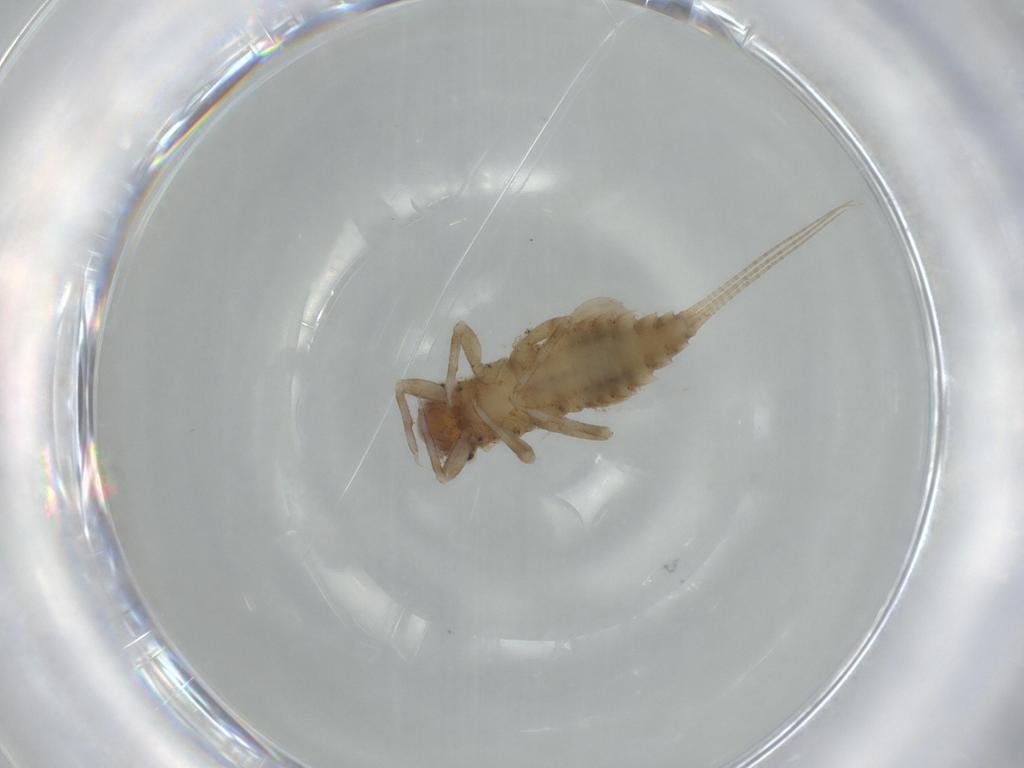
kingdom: Animalia
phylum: Arthropoda
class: Insecta
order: Ephemeroptera
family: Caenidae
